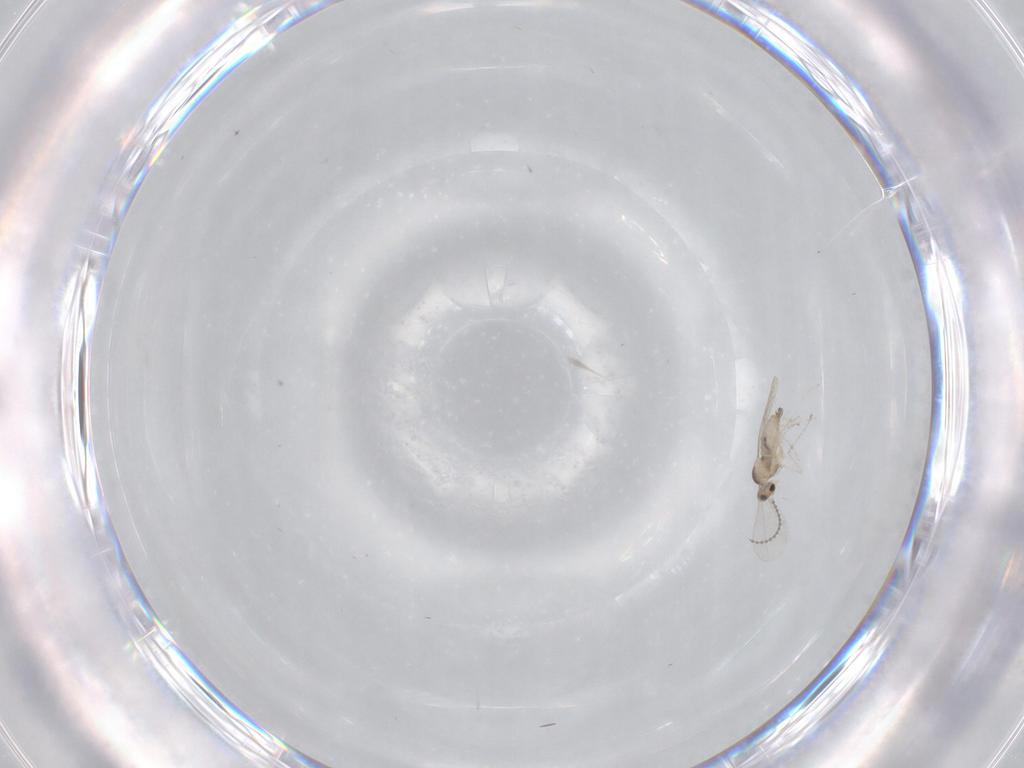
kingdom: Animalia
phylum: Arthropoda
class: Insecta
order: Diptera
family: Cecidomyiidae
